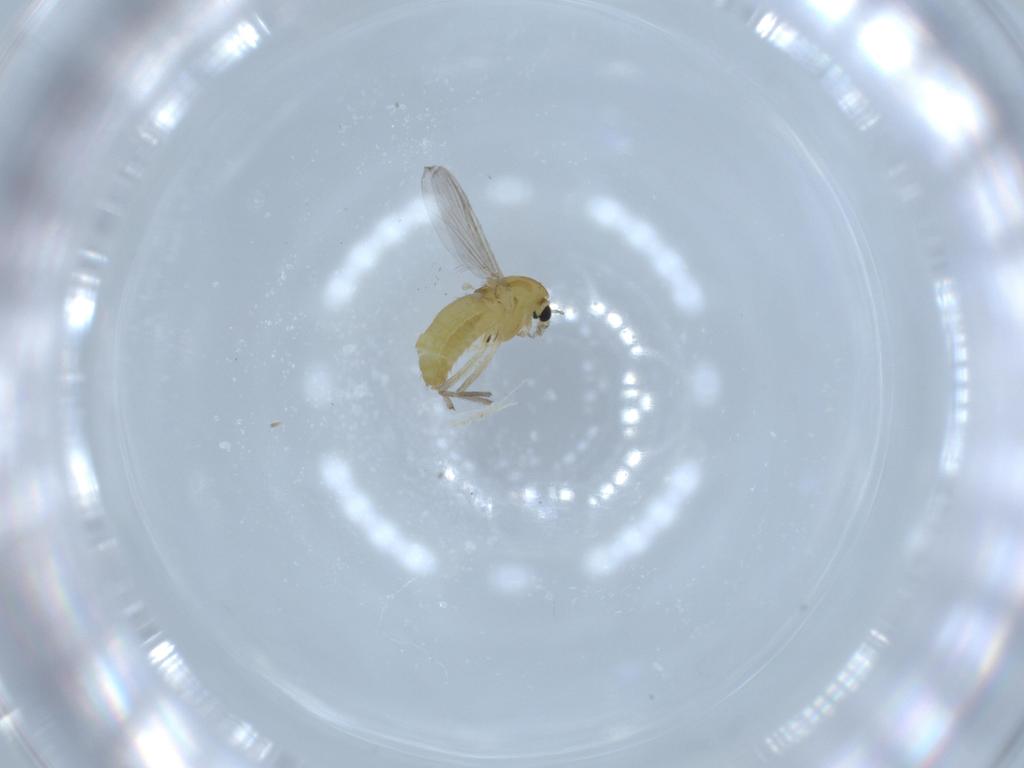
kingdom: Animalia
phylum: Arthropoda
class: Insecta
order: Diptera
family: Chironomidae
